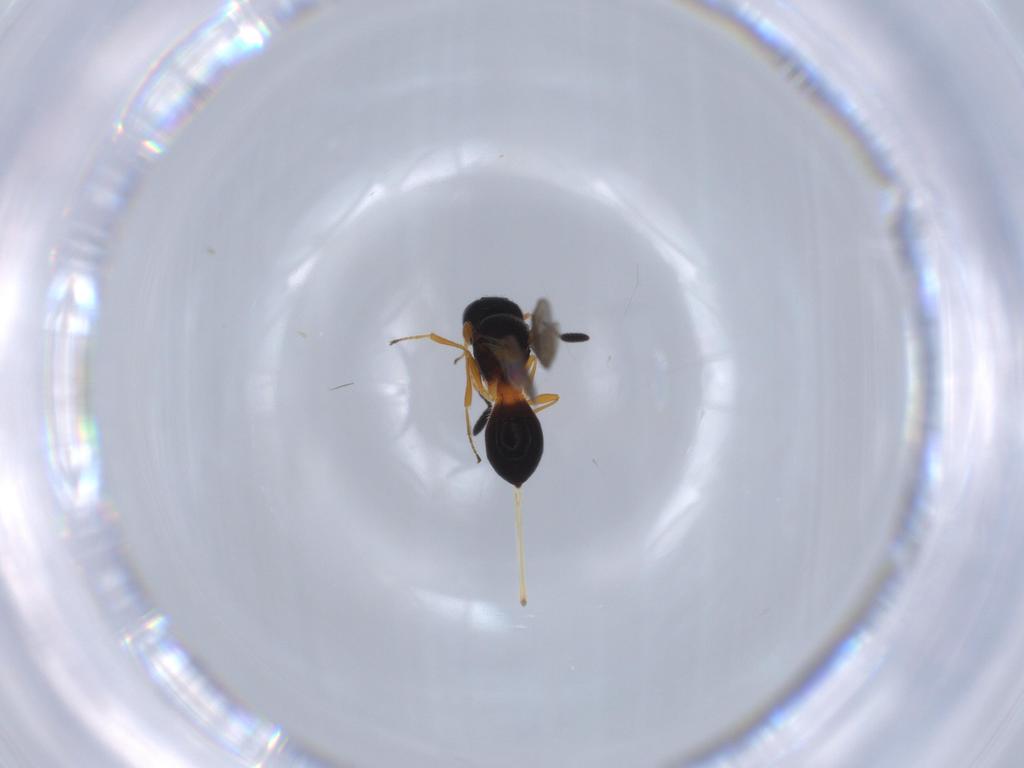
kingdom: Animalia
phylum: Arthropoda
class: Insecta
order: Hymenoptera
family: Scelionidae
